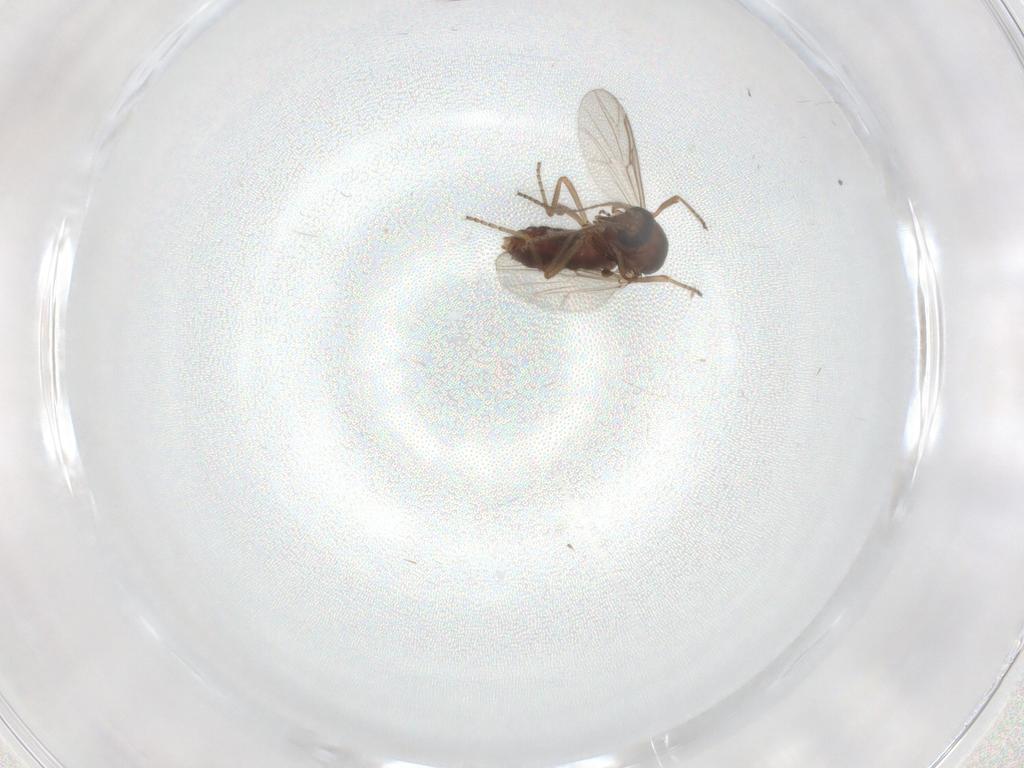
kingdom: Animalia
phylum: Arthropoda
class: Insecta
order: Diptera
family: Ceratopogonidae
